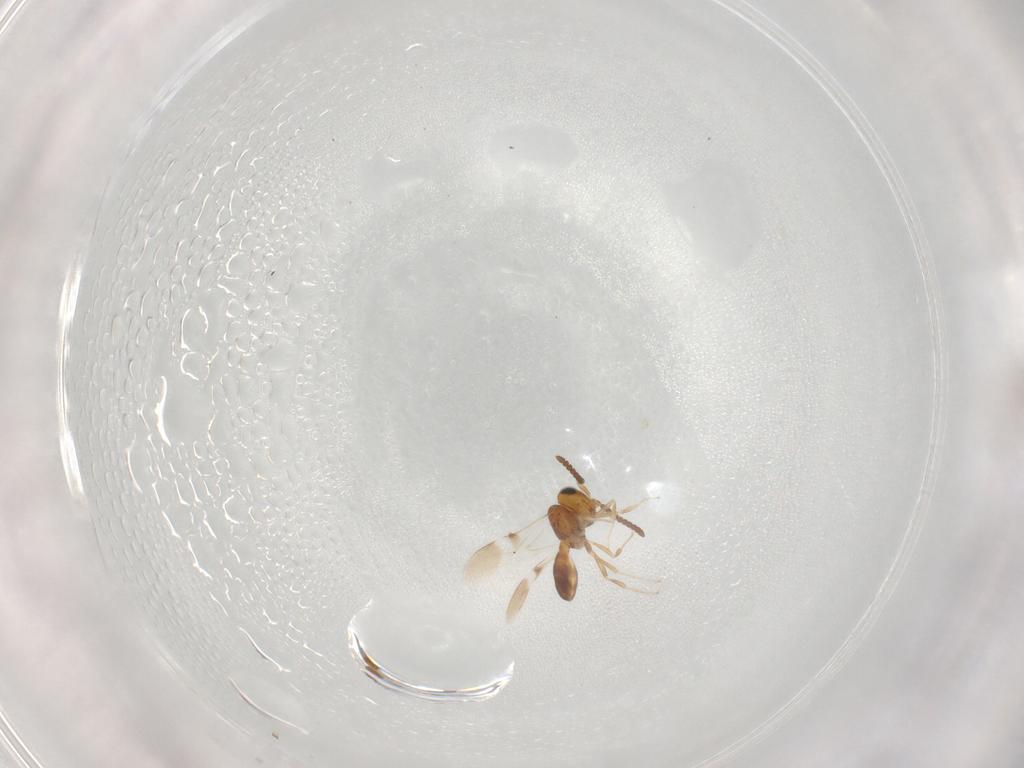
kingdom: Animalia
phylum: Arthropoda
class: Insecta
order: Hymenoptera
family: Scelionidae
